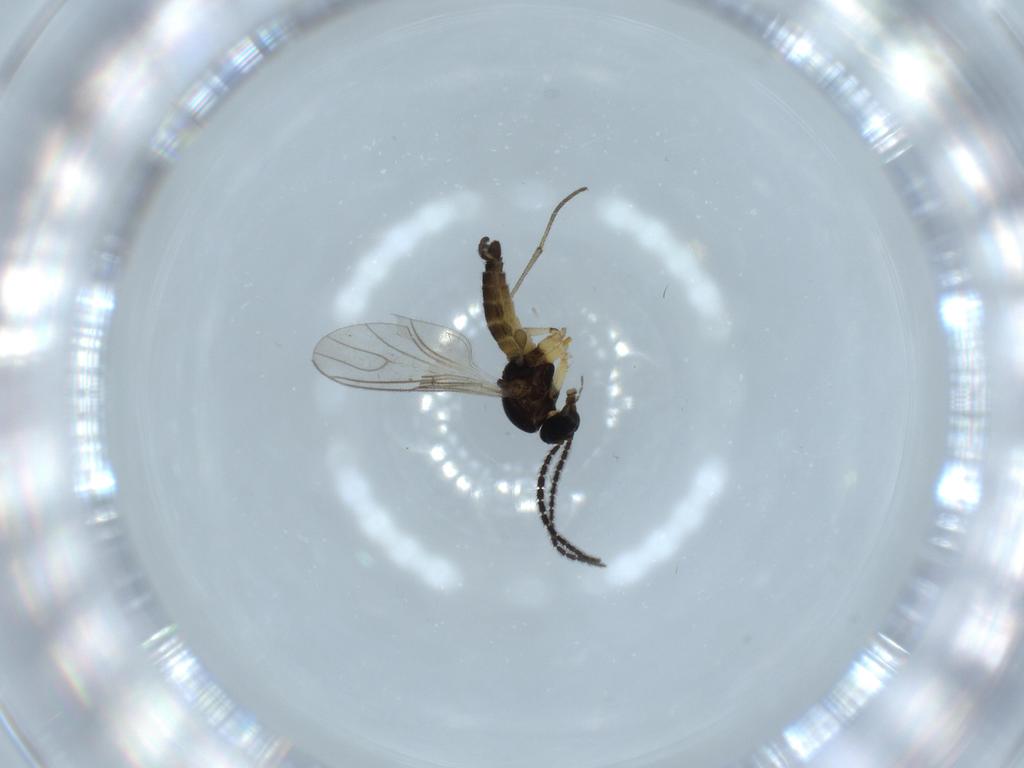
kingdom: Animalia
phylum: Arthropoda
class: Insecta
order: Diptera
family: Sciaridae
